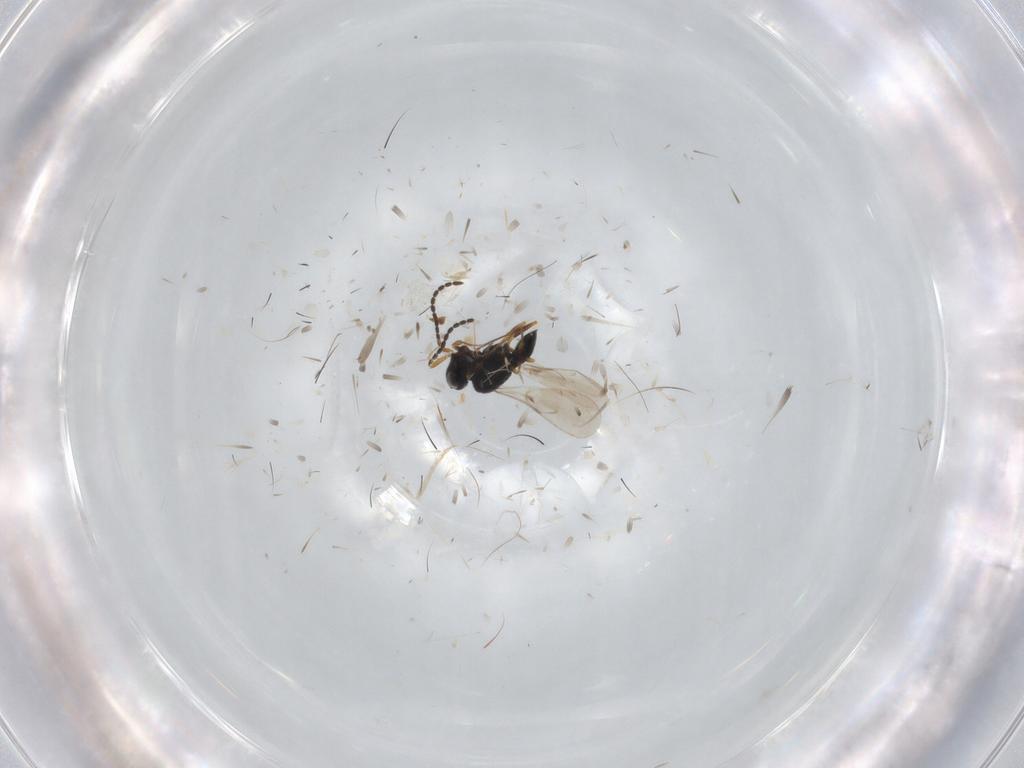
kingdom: Animalia
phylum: Arthropoda
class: Insecta
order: Hymenoptera
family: Scelionidae
